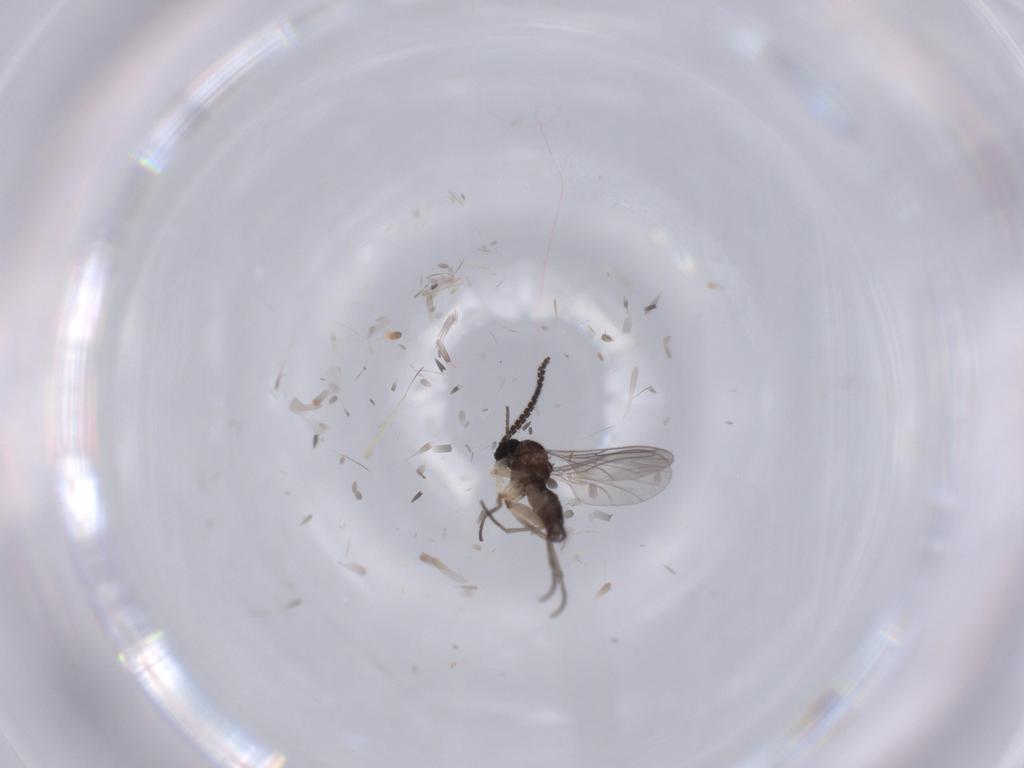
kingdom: Animalia
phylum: Arthropoda
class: Insecta
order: Diptera
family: Sciaridae
